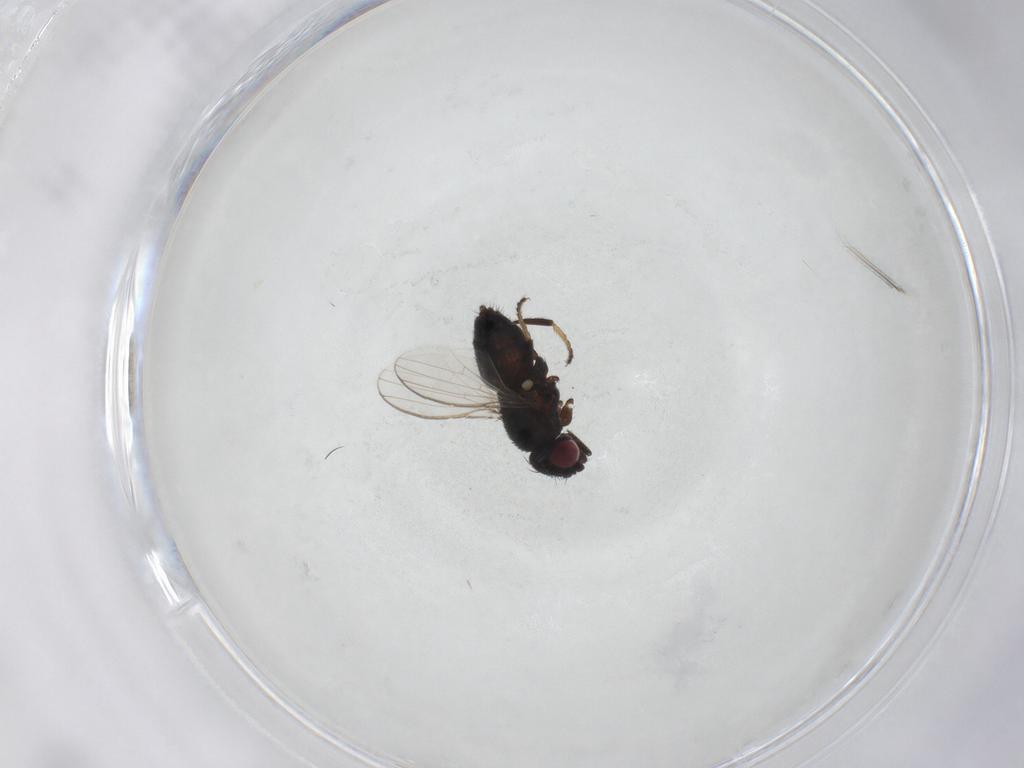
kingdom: Animalia
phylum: Arthropoda
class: Insecta
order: Diptera
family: Milichiidae
